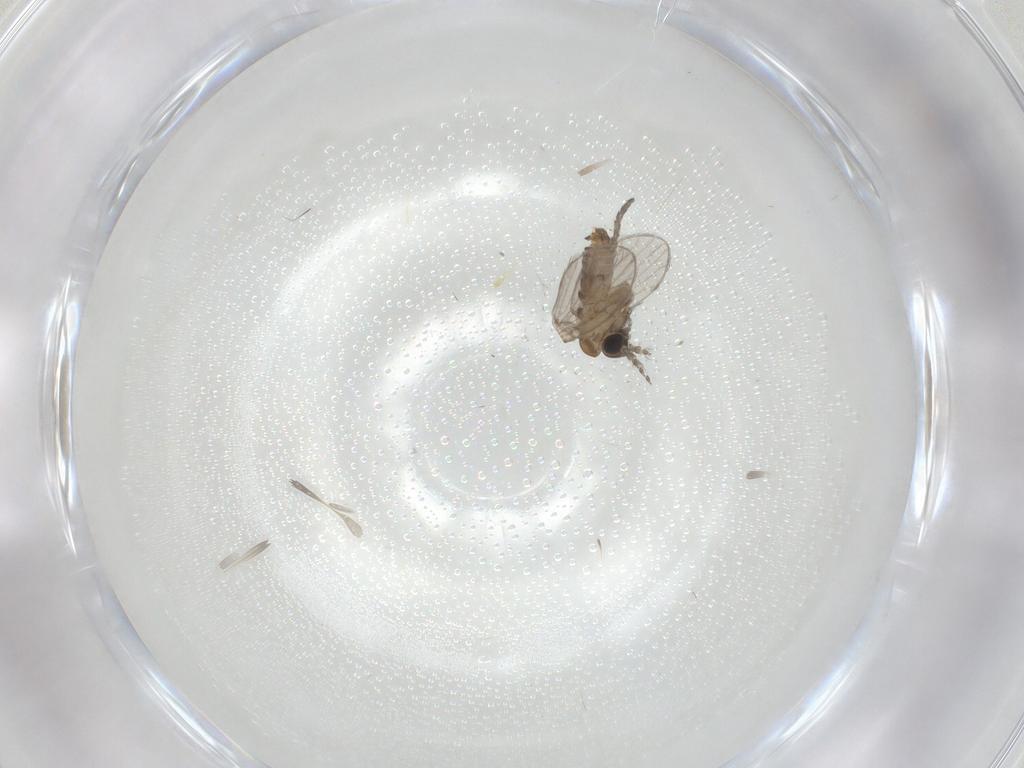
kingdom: Animalia
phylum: Arthropoda
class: Insecta
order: Diptera
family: Psychodidae
